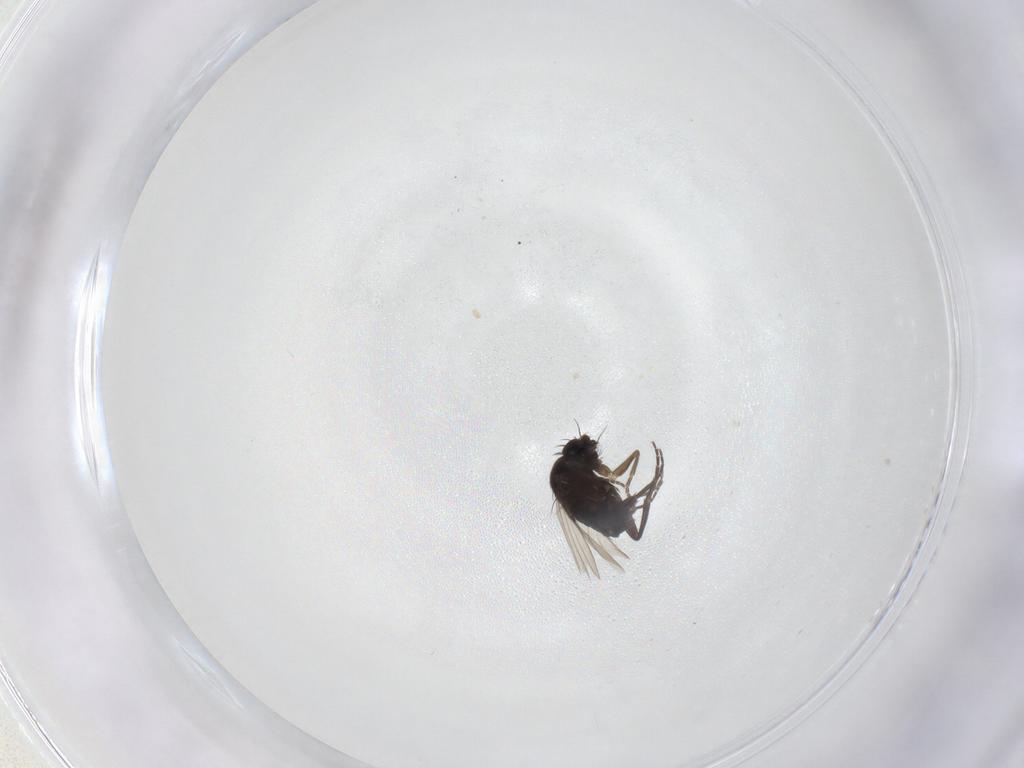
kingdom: Animalia
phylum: Arthropoda
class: Insecta
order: Diptera
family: Phoridae
